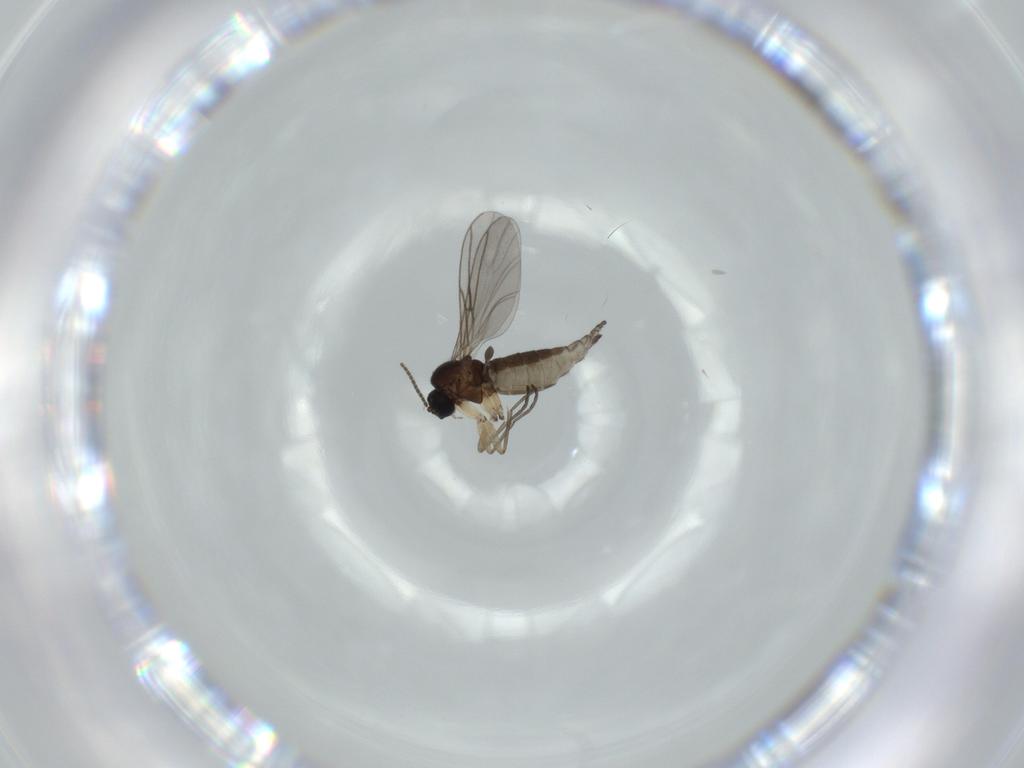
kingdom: Animalia
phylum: Arthropoda
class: Insecta
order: Diptera
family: Sciaridae
